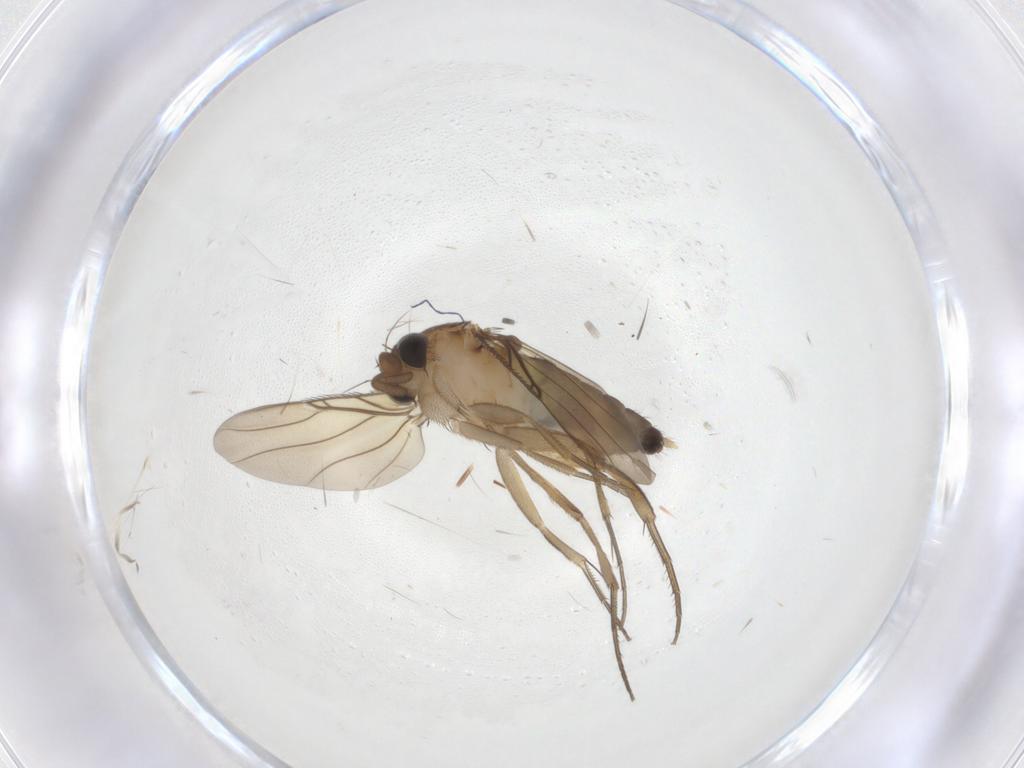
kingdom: Animalia
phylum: Arthropoda
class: Insecta
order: Diptera
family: Phoridae
